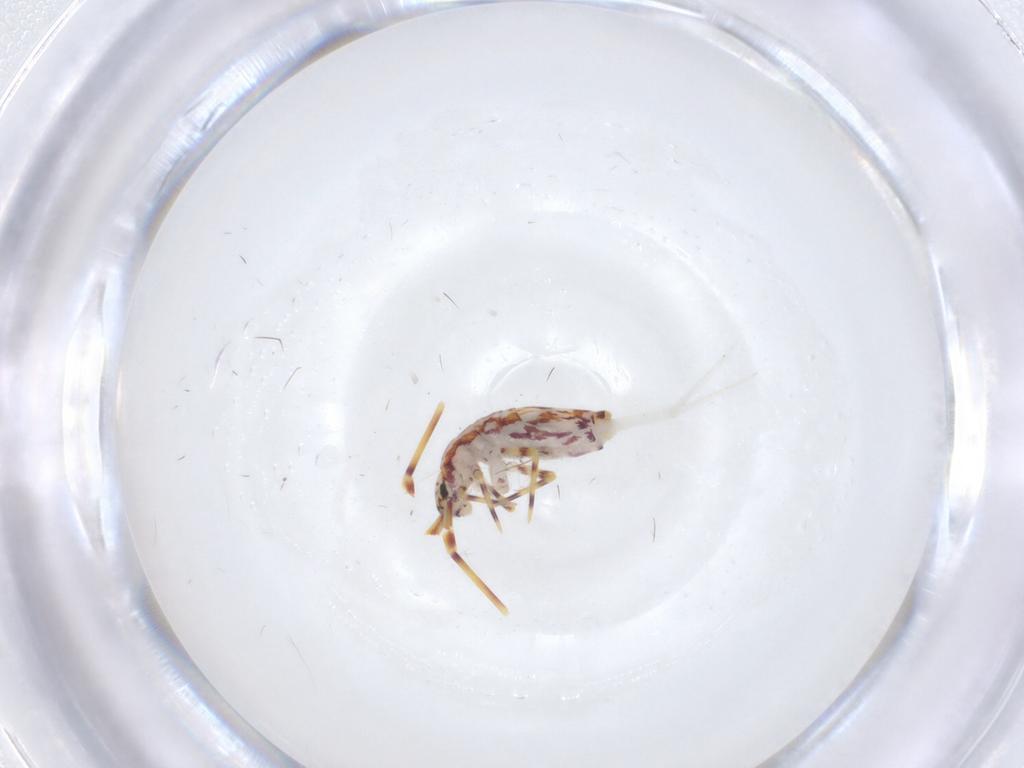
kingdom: Animalia
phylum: Arthropoda
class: Collembola
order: Entomobryomorpha
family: Entomobryidae
